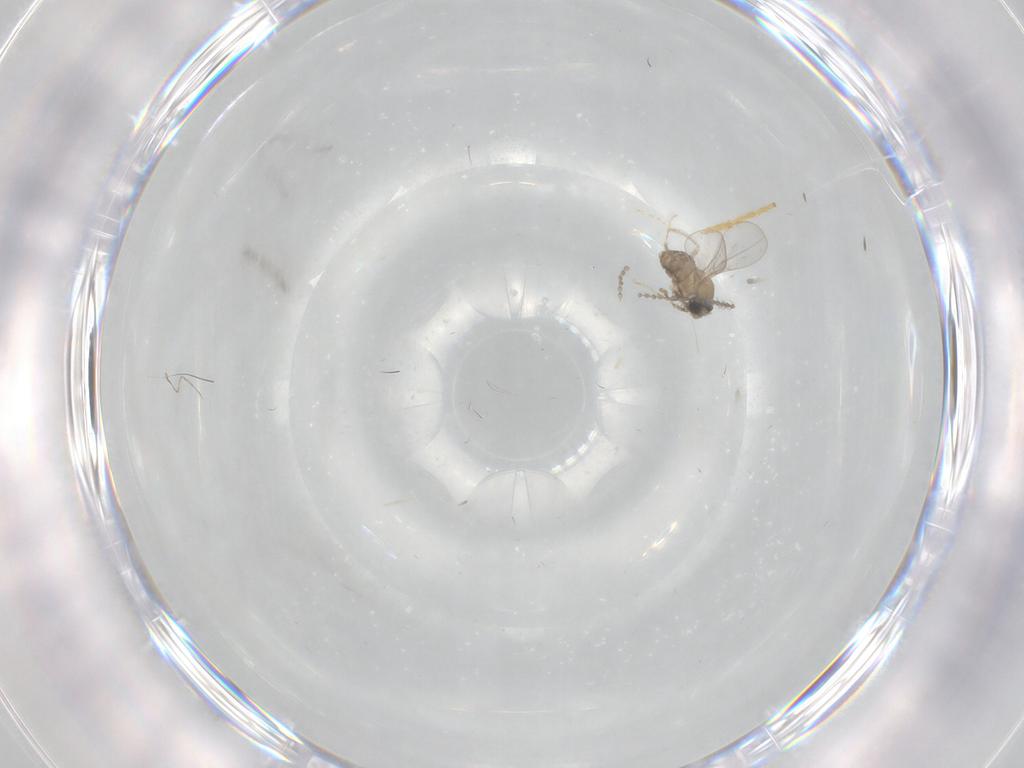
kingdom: Animalia
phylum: Arthropoda
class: Insecta
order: Diptera
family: Cecidomyiidae
